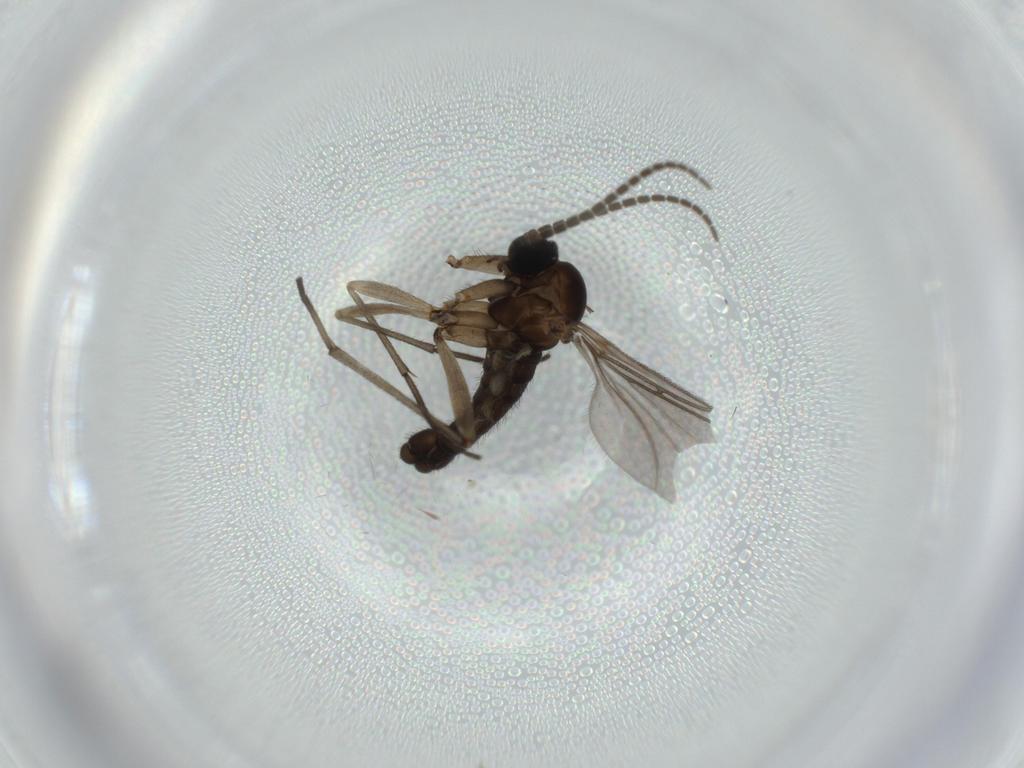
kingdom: Animalia
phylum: Arthropoda
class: Insecta
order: Diptera
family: Sciaridae
